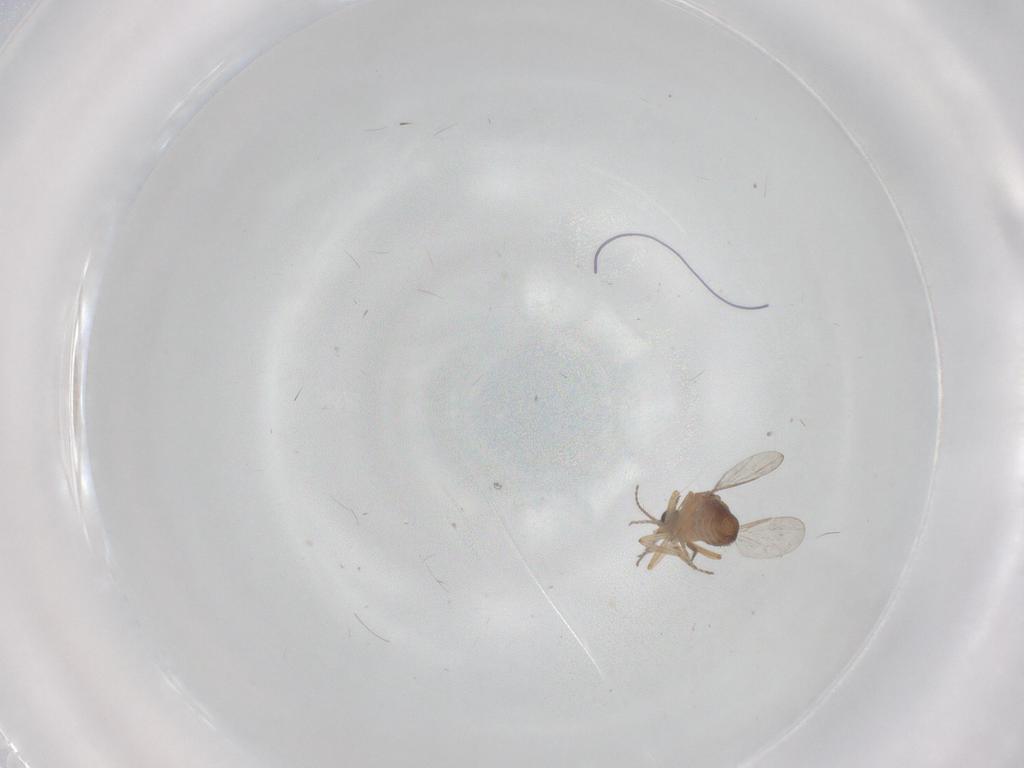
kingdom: Animalia
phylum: Arthropoda
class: Insecta
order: Diptera
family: Ceratopogonidae
